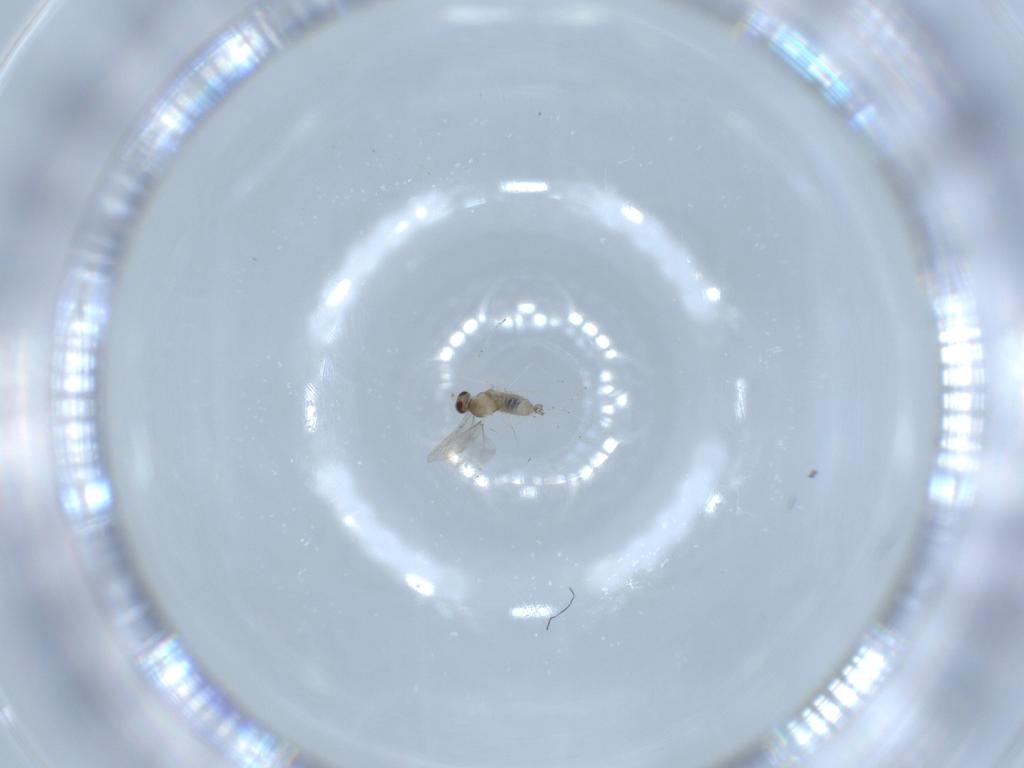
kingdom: Animalia
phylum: Arthropoda
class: Insecta
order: Diptera
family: Cecidomyiidae
